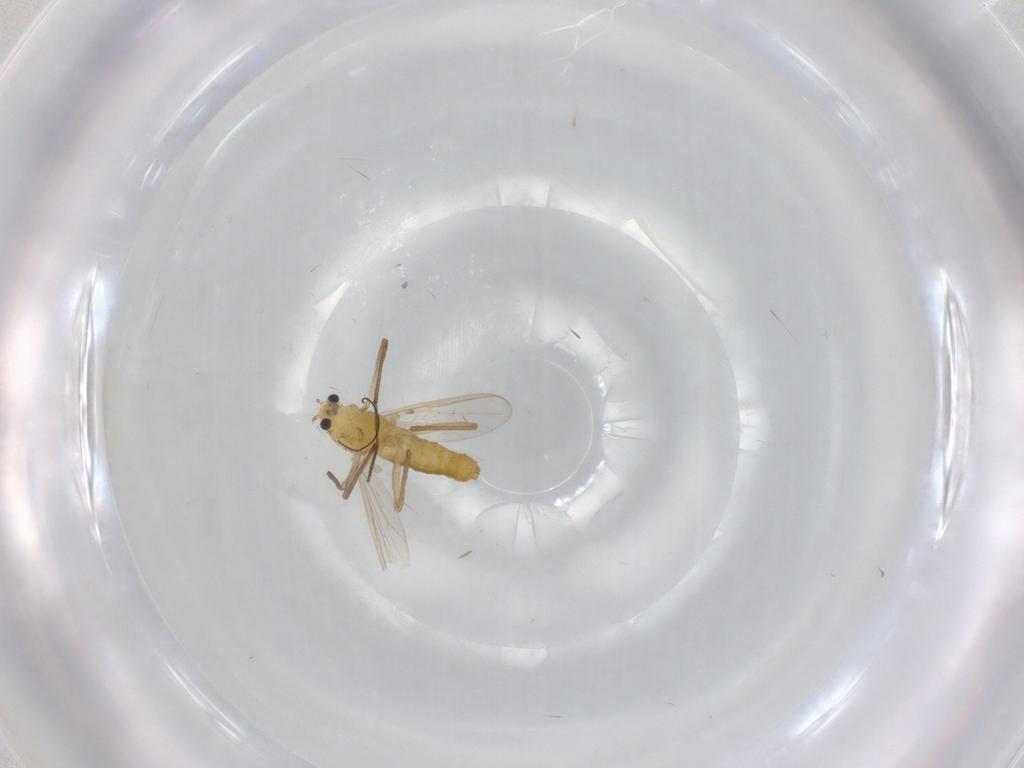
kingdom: Animalia
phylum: Arthropoda
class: Insecta
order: Diptera
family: Chironomidae
